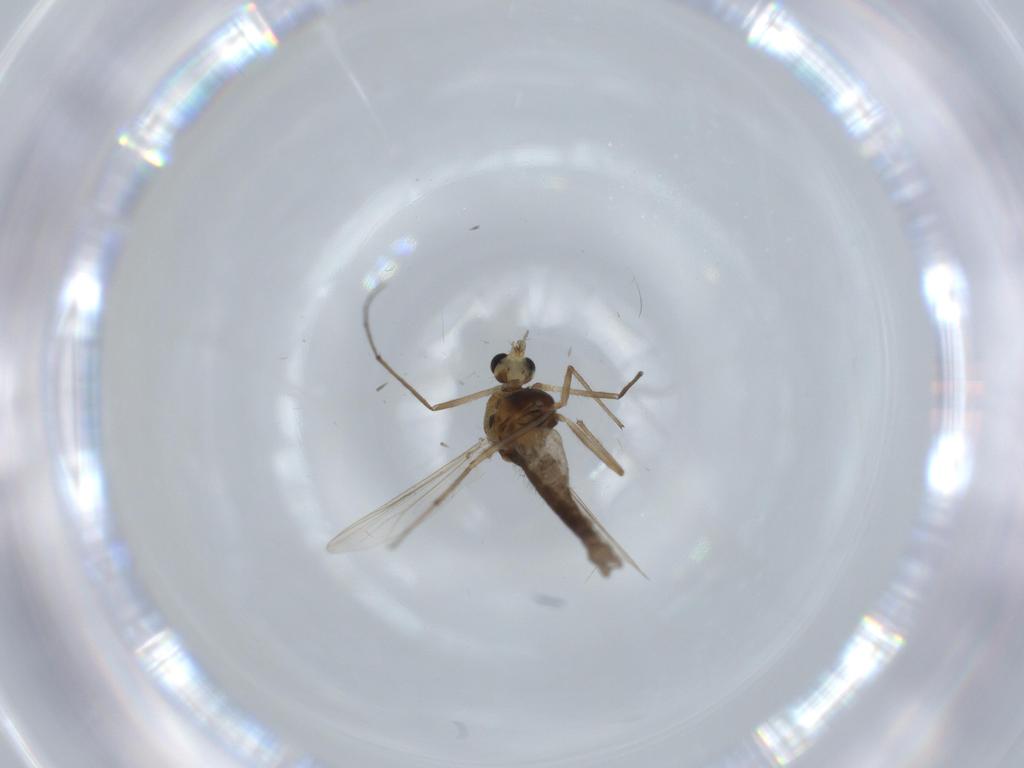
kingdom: Animalia
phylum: Arthropoda
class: Insecta
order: Diptera
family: Chironomidae
